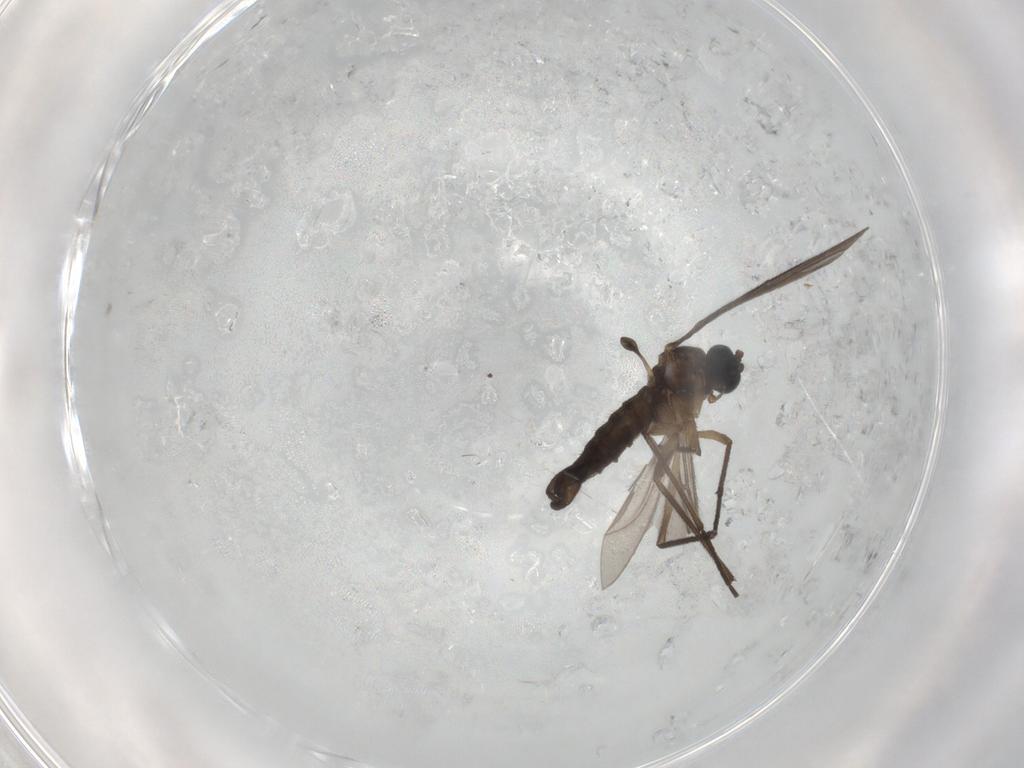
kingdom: Animalia
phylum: Arthropoda
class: Insecta
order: Diptera
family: Sciaridae
